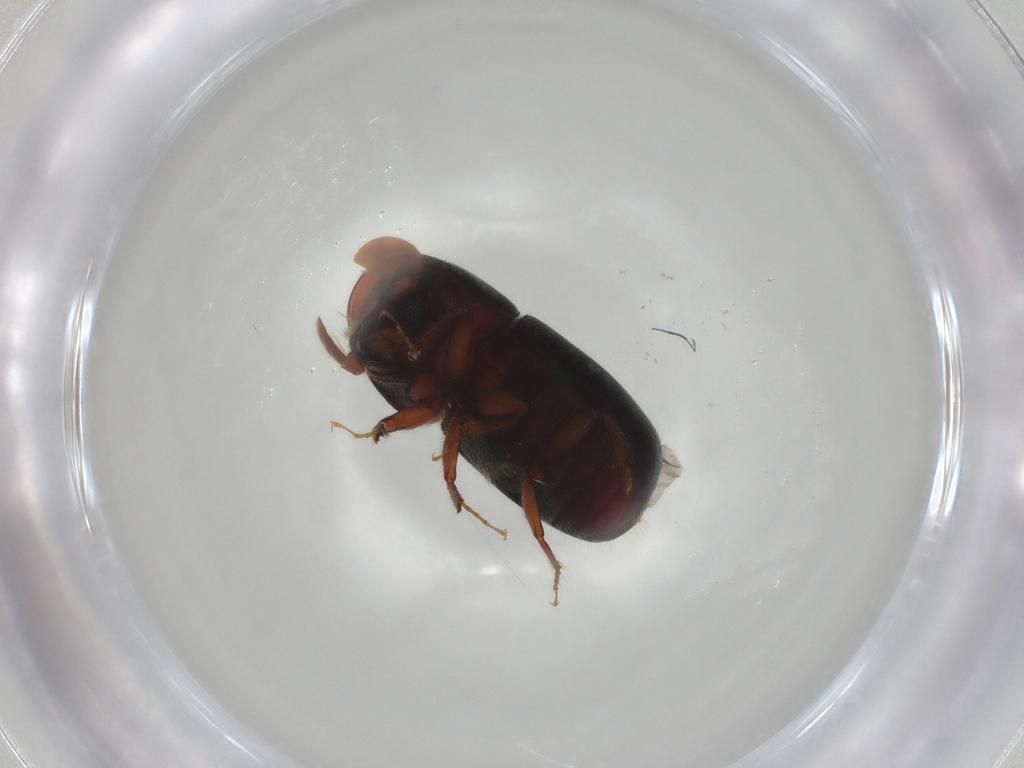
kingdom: Animalia
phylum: Arthropoda
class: Insecta
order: Coleoptera
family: Curculionidae
